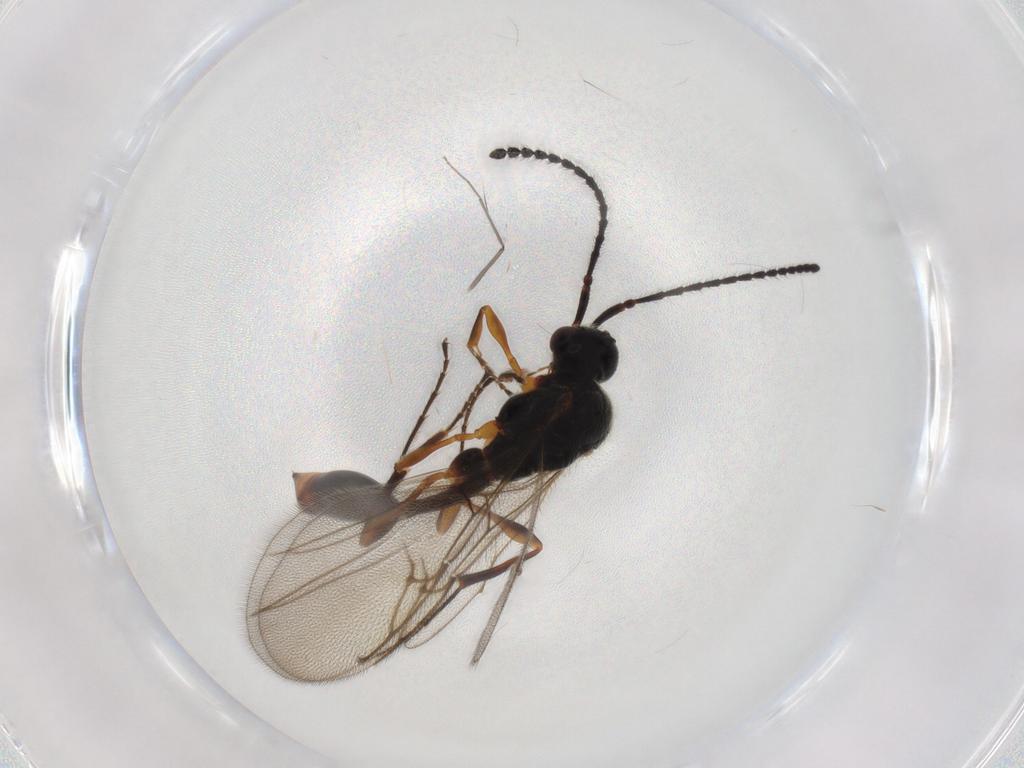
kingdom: Animalia
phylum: Arthropoda
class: Insecta
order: Hymenoptera
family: Diapriidae
